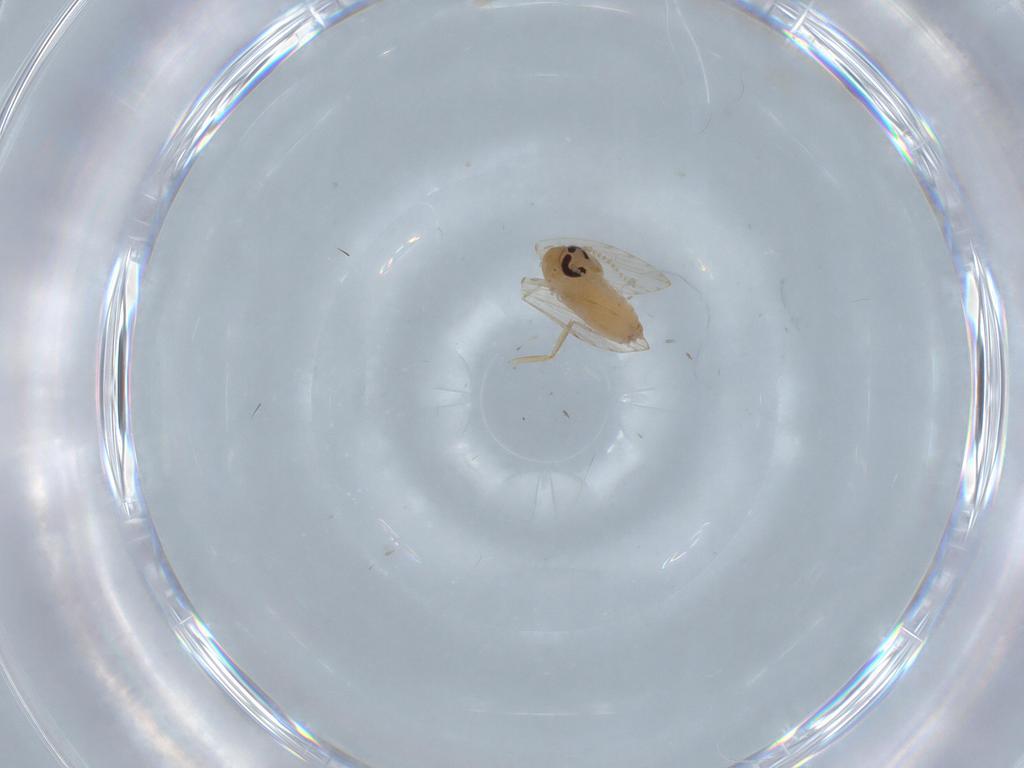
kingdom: Animalia
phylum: Arthropoda
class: Insecta
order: Diptera
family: Psychodidae
